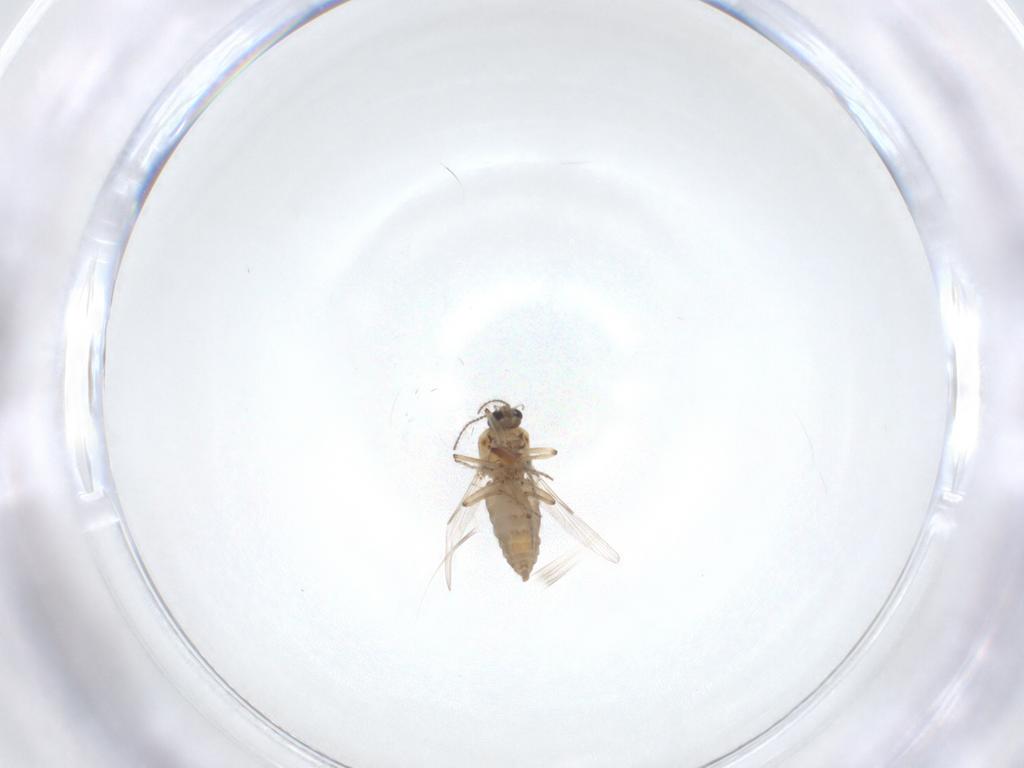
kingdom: Animalia
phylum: Arthropoda
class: Insecta
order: Diptera
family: Ceratopogonidae
